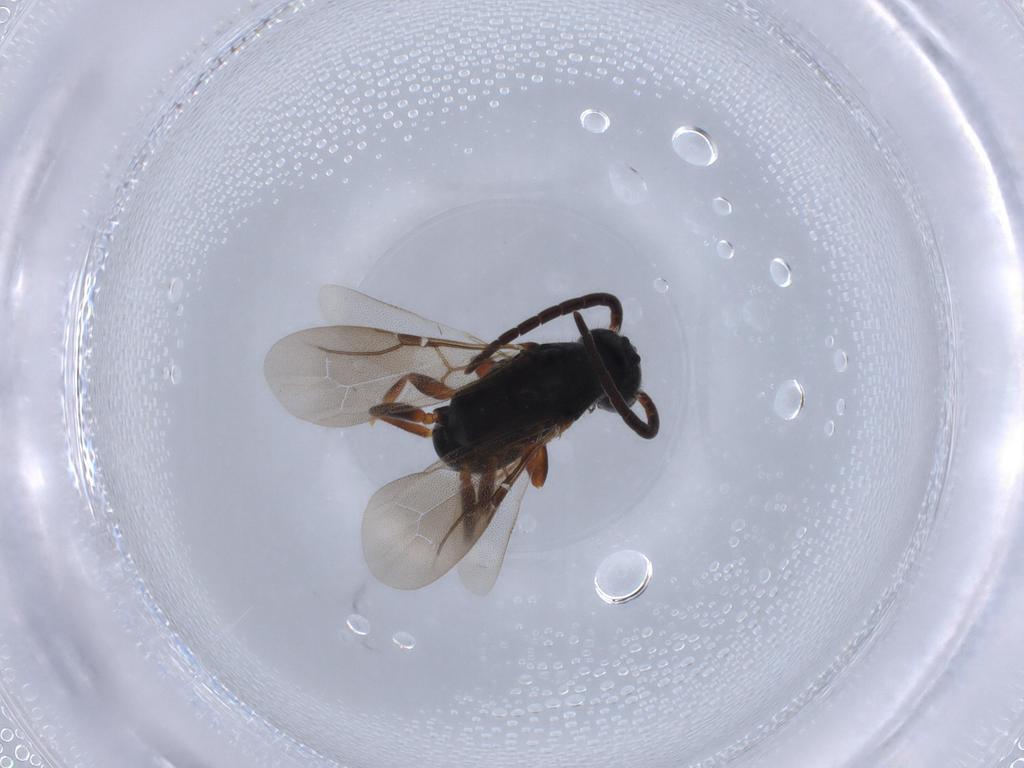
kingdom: Animalia
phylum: Arthropoda
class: Insecta
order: Hymenoptera
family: Bethylidae
